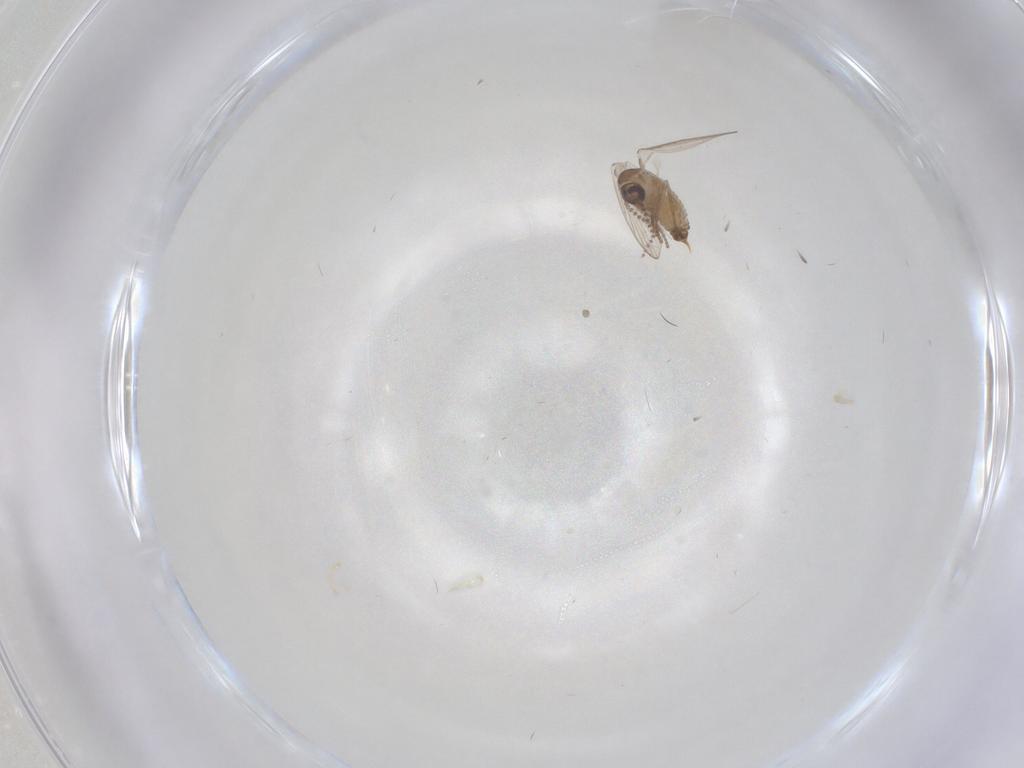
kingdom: Animalia
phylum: Arthropoda
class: Insecta
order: Diptera
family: Psychodidae
